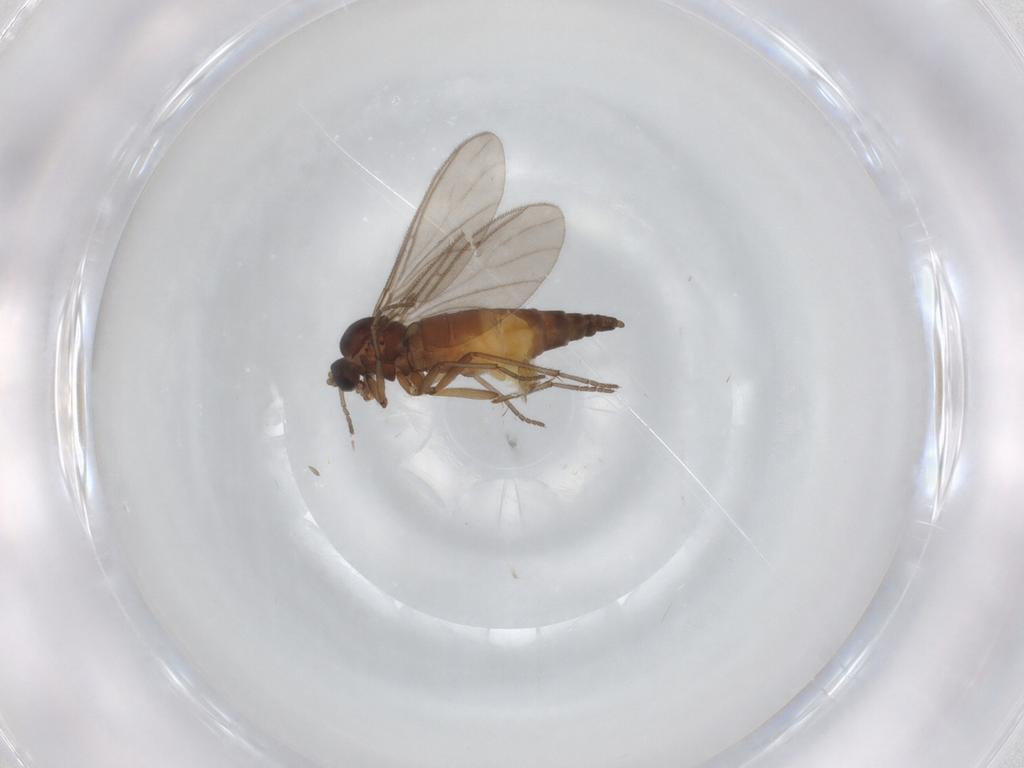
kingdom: Animalia
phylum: Arthropoda
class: Insecta
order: Diptera
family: Sciaridae
